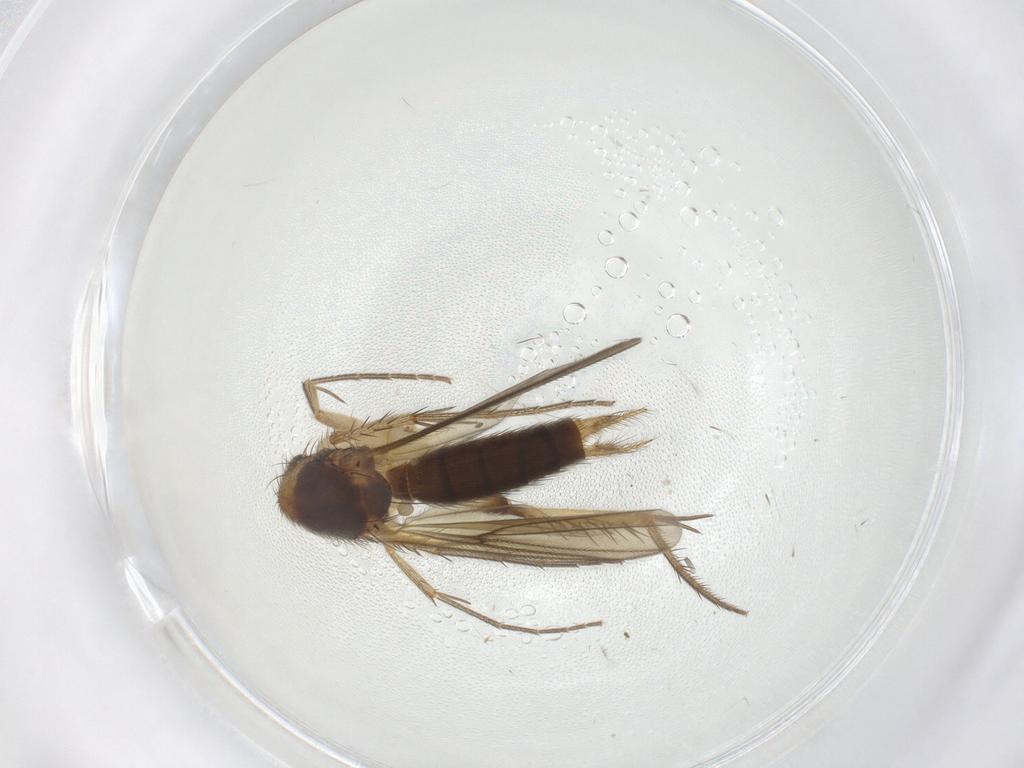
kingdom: Animalia
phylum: Arthropoda
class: Insecta
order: Diptera
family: Mycetophilidae
